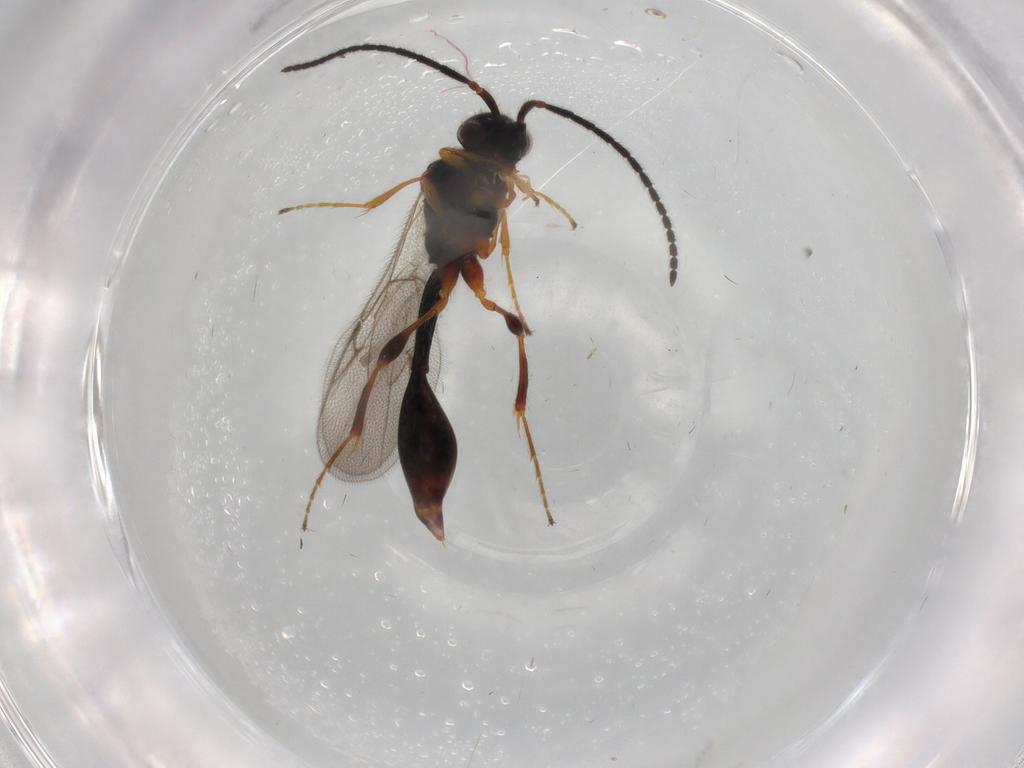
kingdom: Animalia
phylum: Arthropoda
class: Insecta
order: Hymenoptera
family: Diapriidae
